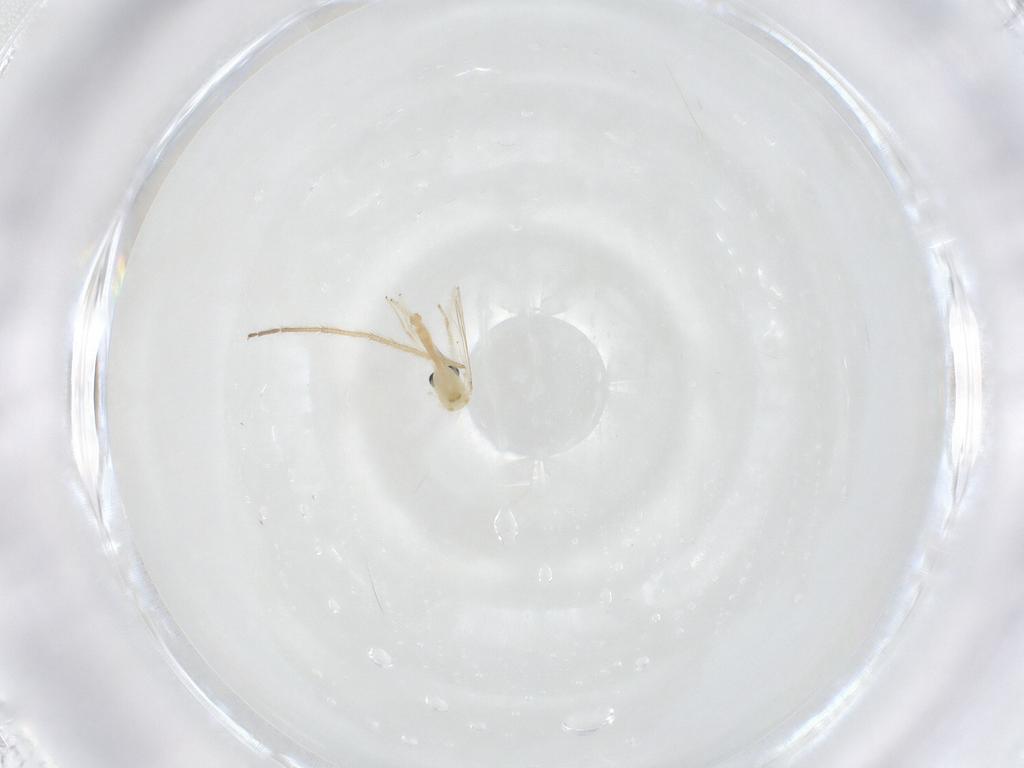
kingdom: Animalia
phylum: Arthropoda
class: Insecta
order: Diptera
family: Chironomidae
